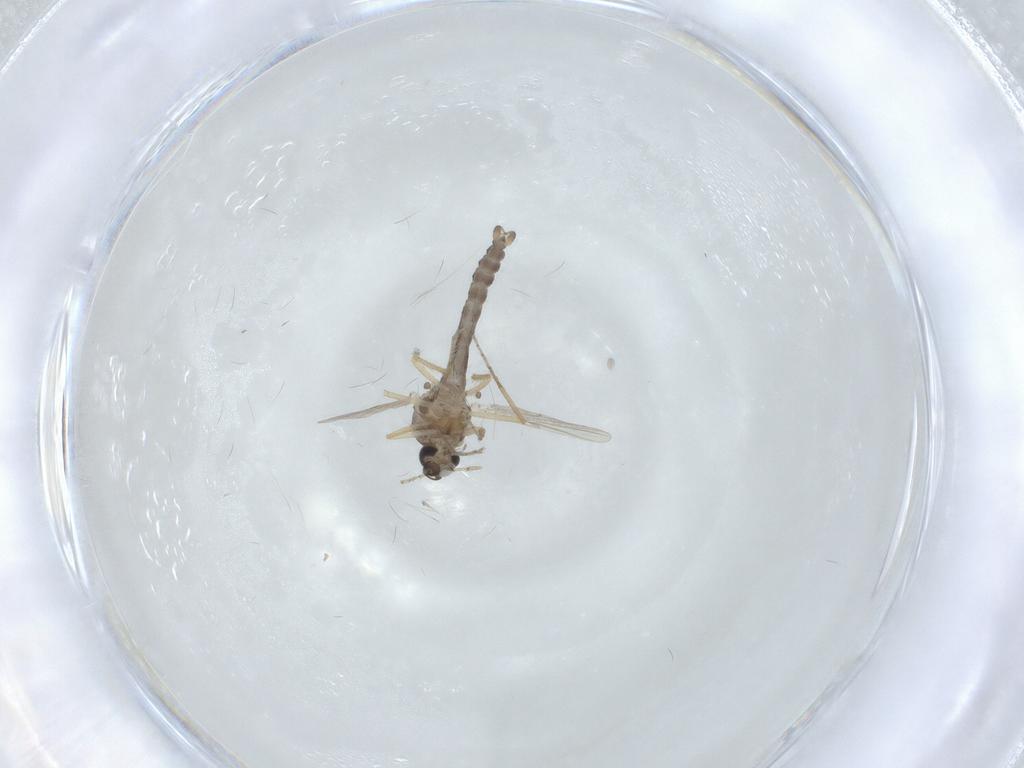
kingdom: Animalia
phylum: Arthropoda
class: Insecta
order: Diptera
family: Ceratopogonidae
